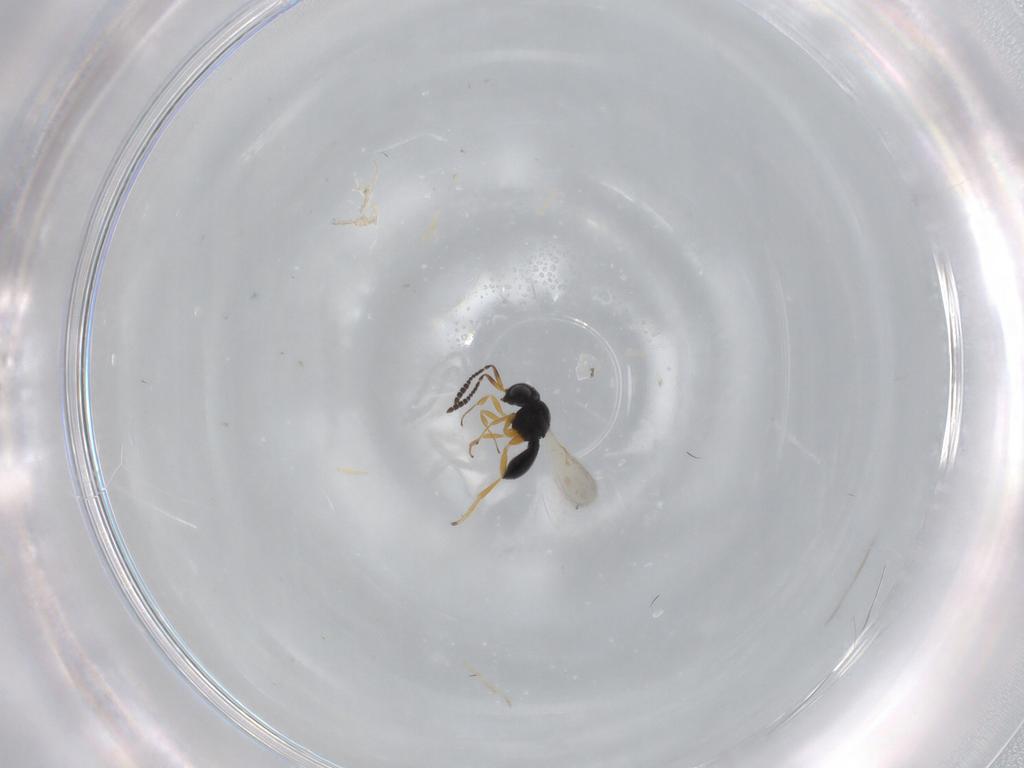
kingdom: Animalia
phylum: Arthropoda
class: Insecta
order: Hymenoptera
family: Scelionidae
